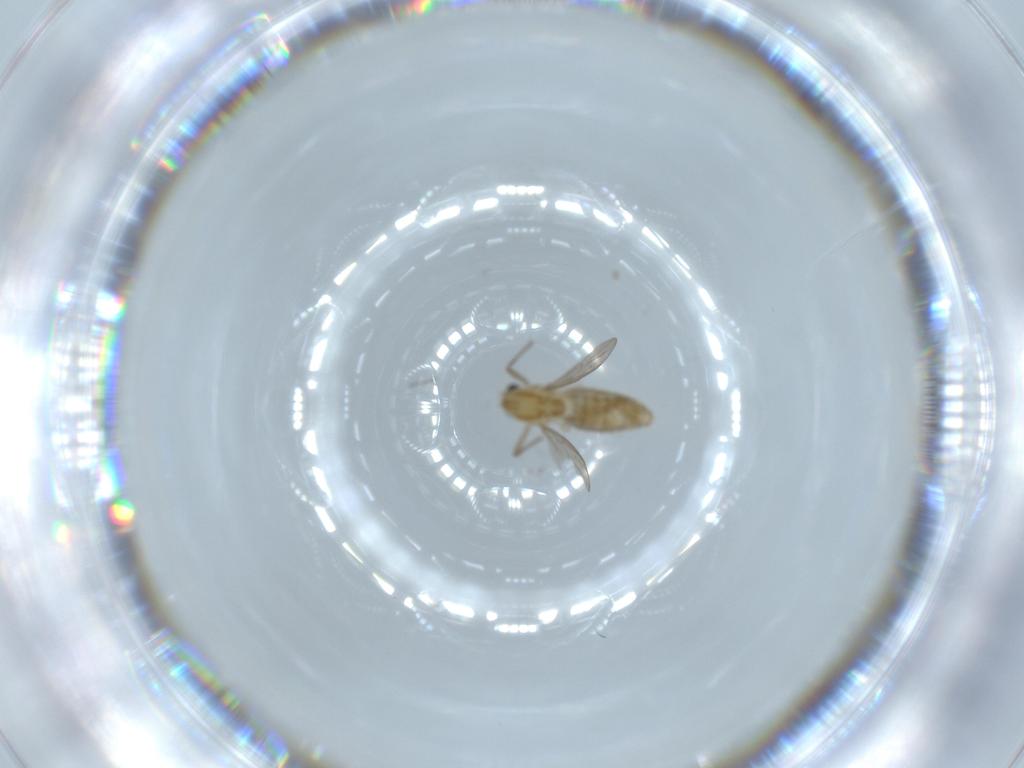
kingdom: Animalia
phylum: Arthropoda
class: Insecta
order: Diptera
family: Chironomidae
